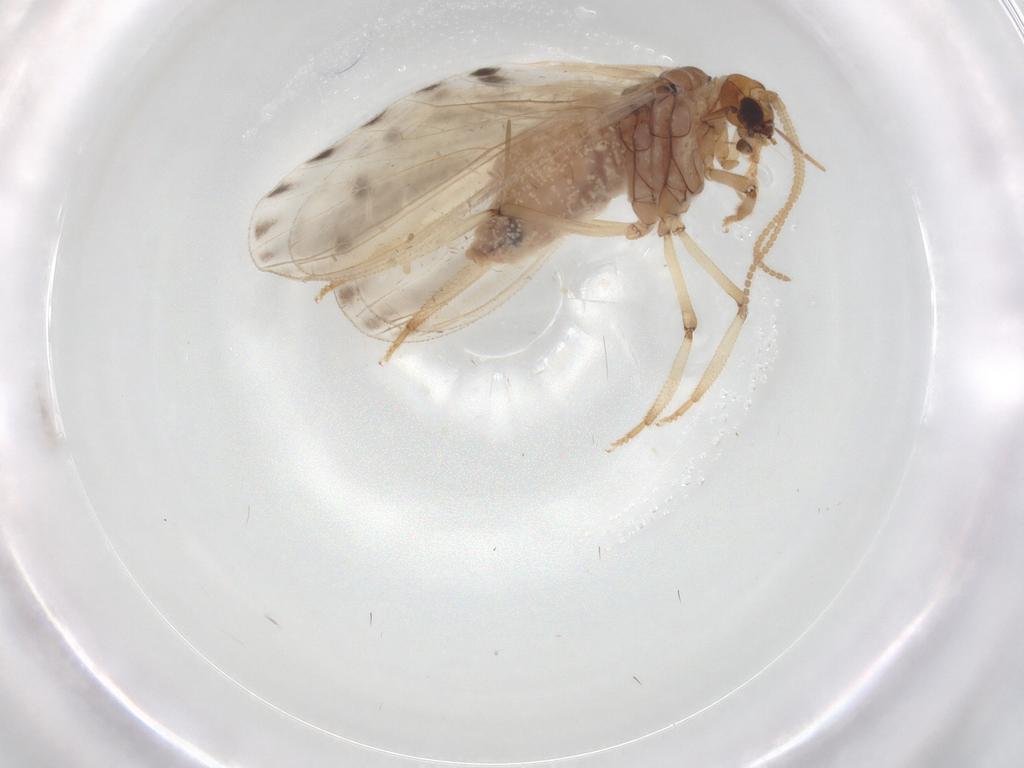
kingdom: Animalia
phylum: Arthropoda
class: Insecta
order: Neuroptera
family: Coniopterygidae
